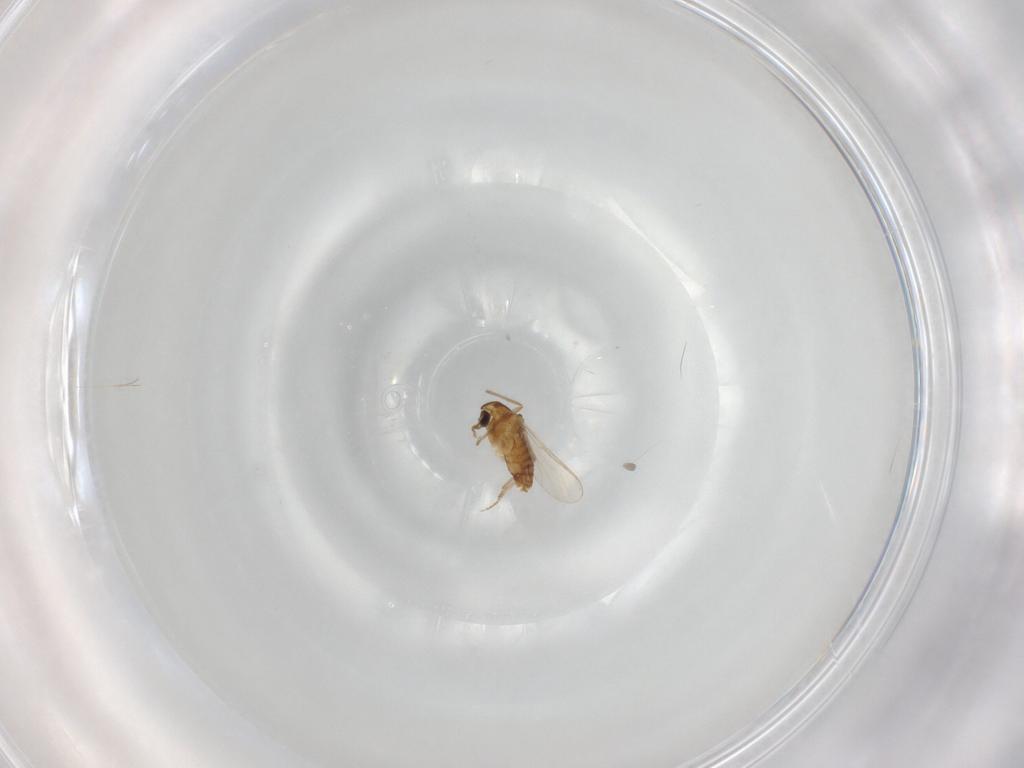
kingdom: Animalia
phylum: Arthropoda
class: Insecta
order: Diptera
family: Chironomidae
